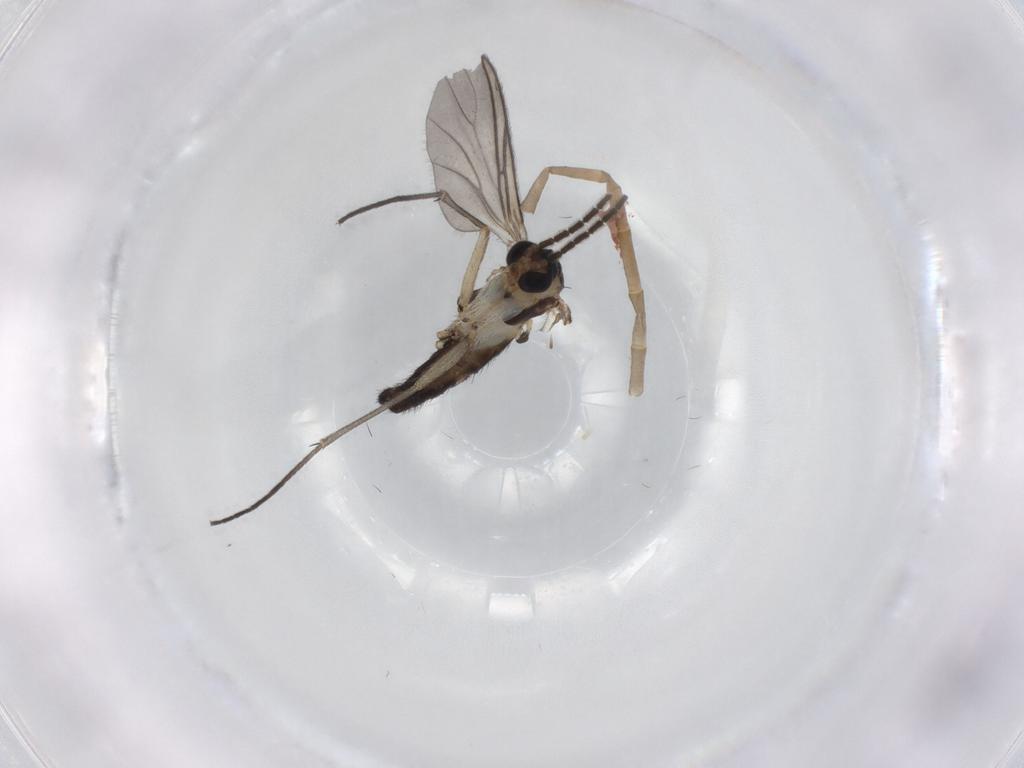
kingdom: Animalia
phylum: Arthropoda
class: Insecta
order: Diptera
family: Sciaridae
